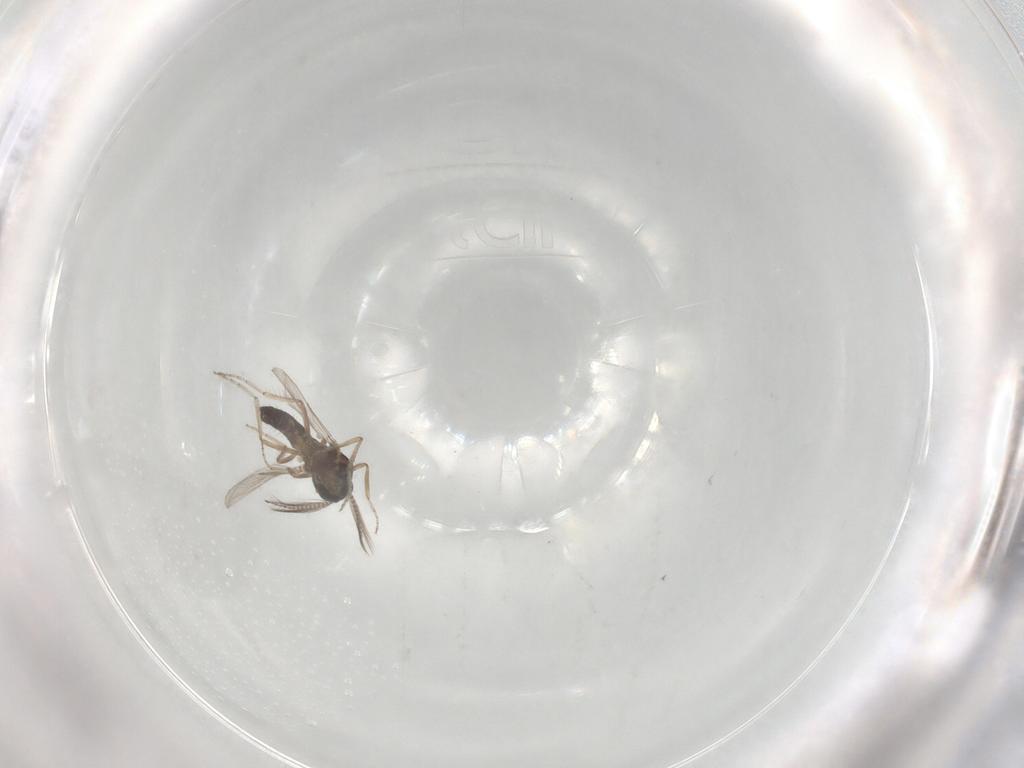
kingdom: Animalia
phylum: Arthropoda
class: Insecta
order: Diptera
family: Ceratopogonidae
